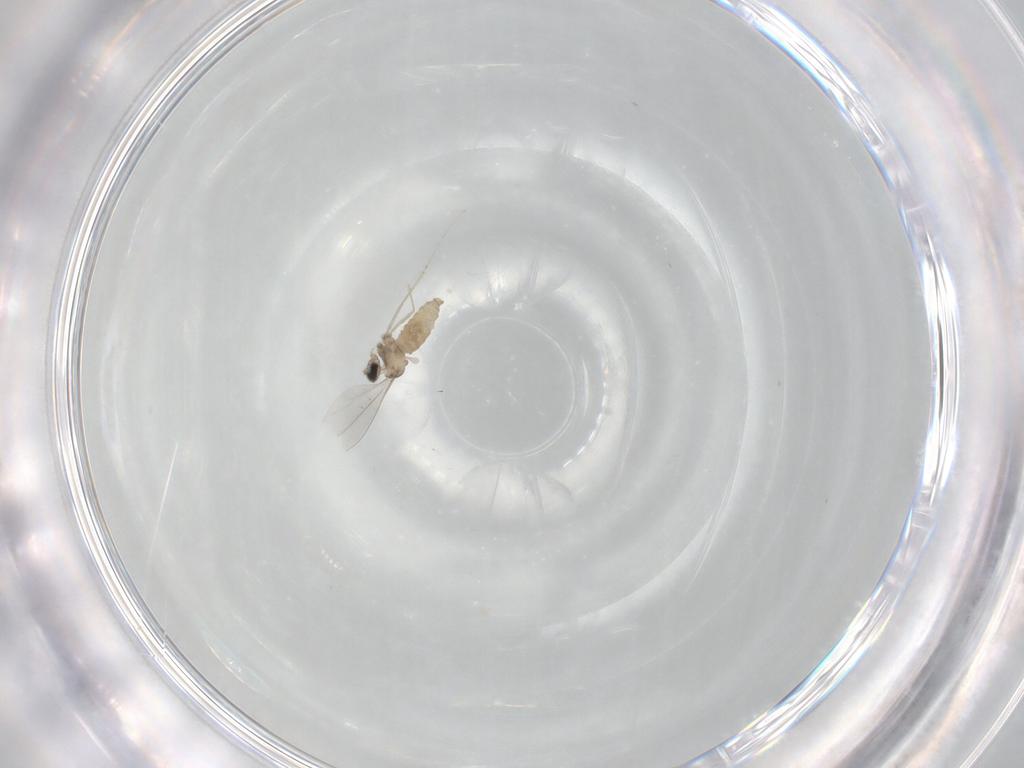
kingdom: Animalia
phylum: Arthropoda
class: Insecta
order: Diptera
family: Cecidomyiidae
